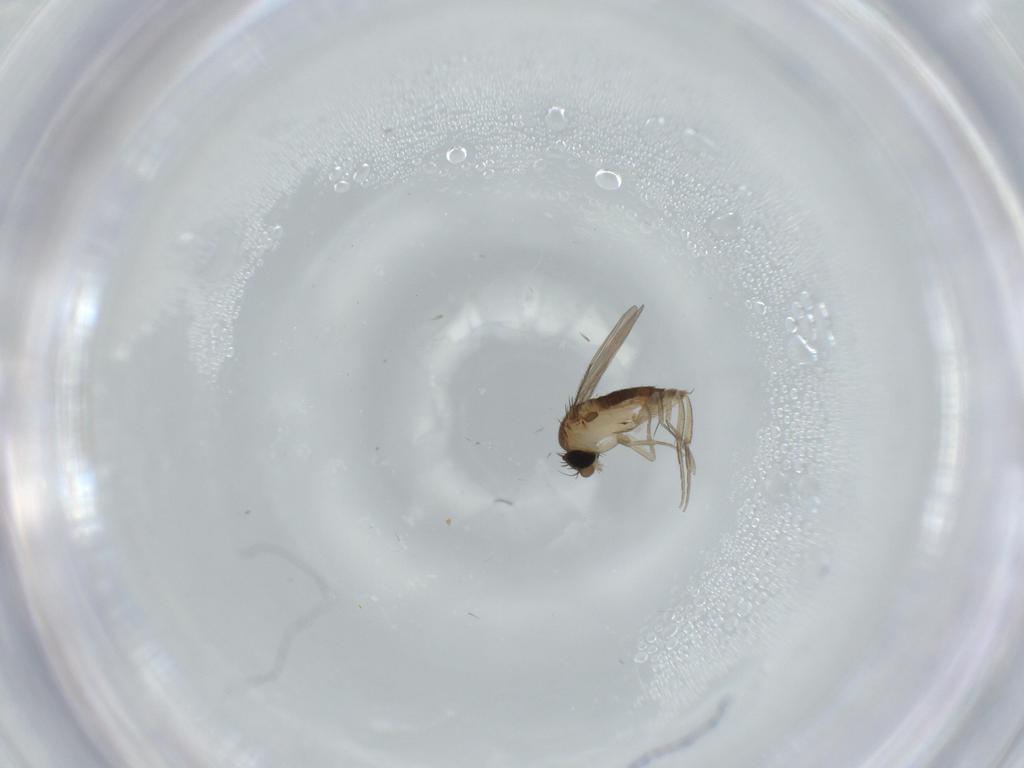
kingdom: Animalia
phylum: Arthropoda
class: Insecta
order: Diptera
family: Phoridae
